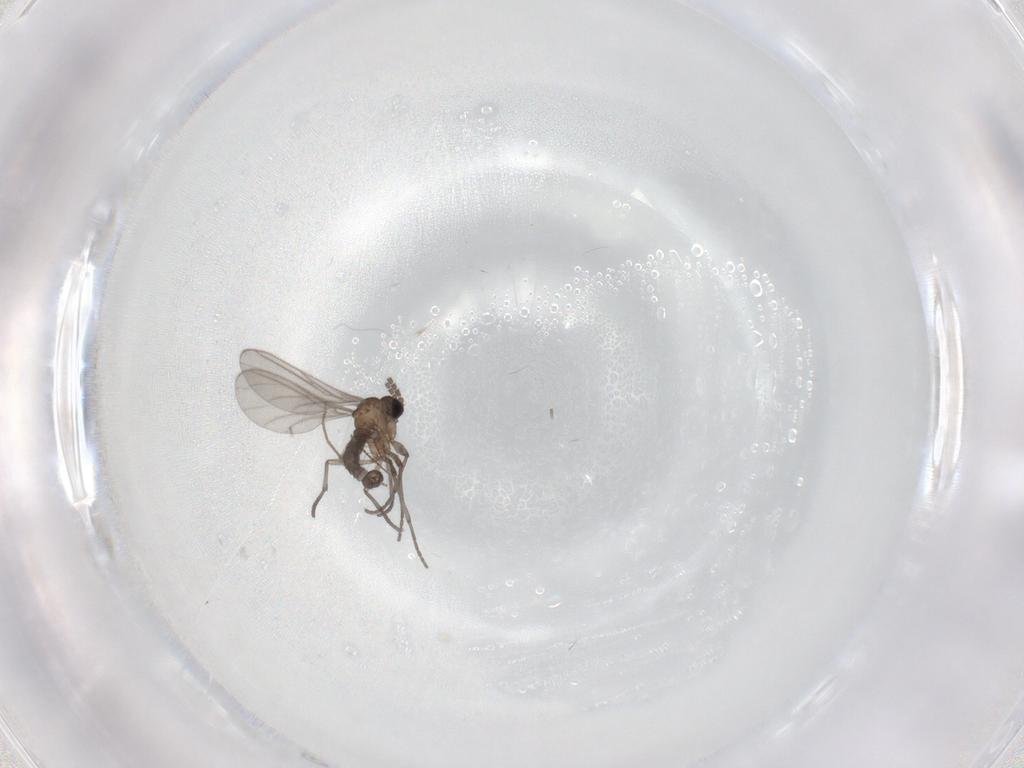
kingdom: Animalia
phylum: Arthropoda
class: Insecta
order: Diptera
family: Sciaridae
